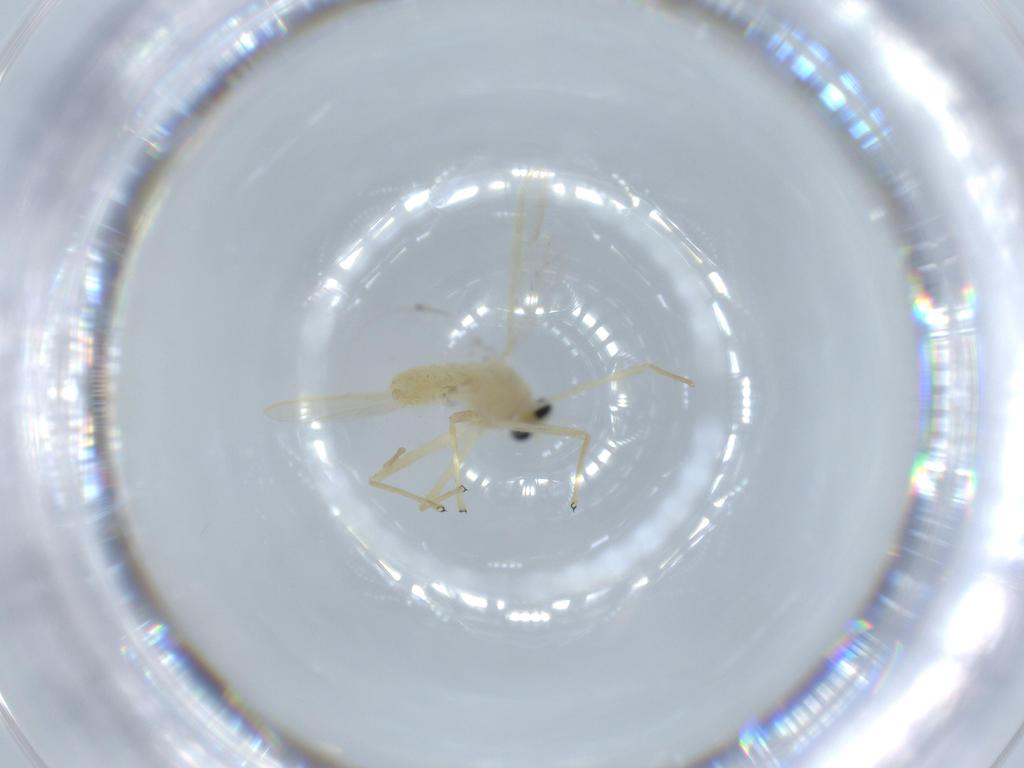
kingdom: Animalia
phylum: Arthropoda
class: Insecta
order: Diptera
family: Chironomidae
